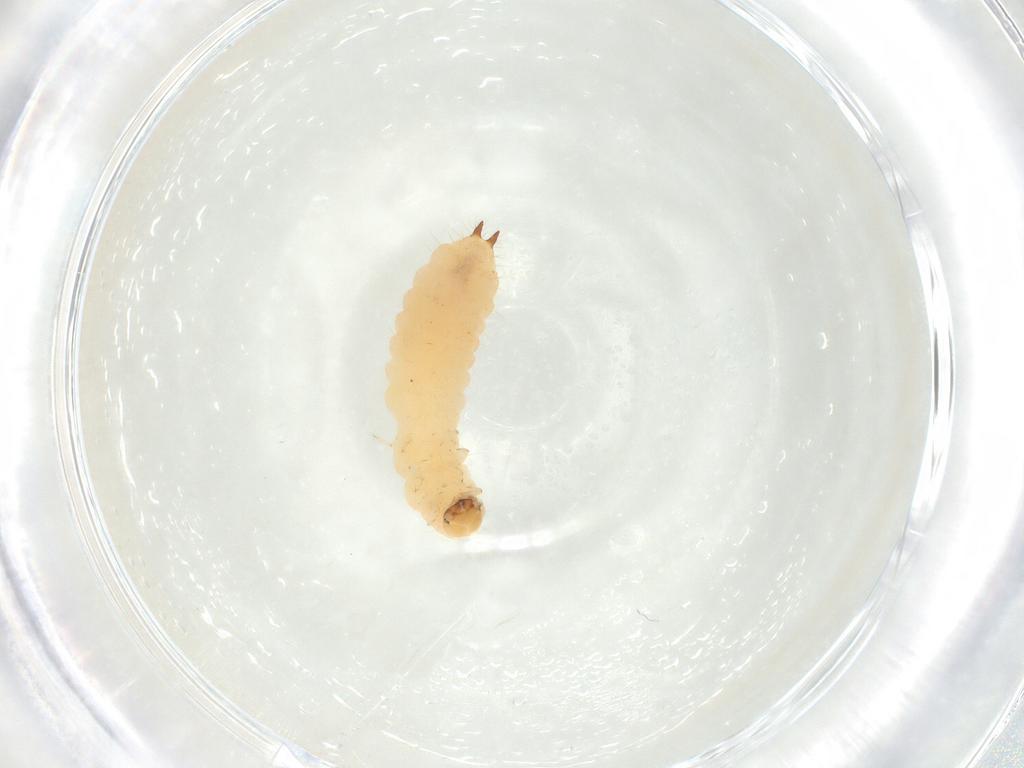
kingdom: Animalia
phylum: Arthropoda
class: Insecta
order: Coleoptera
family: Melyridae
